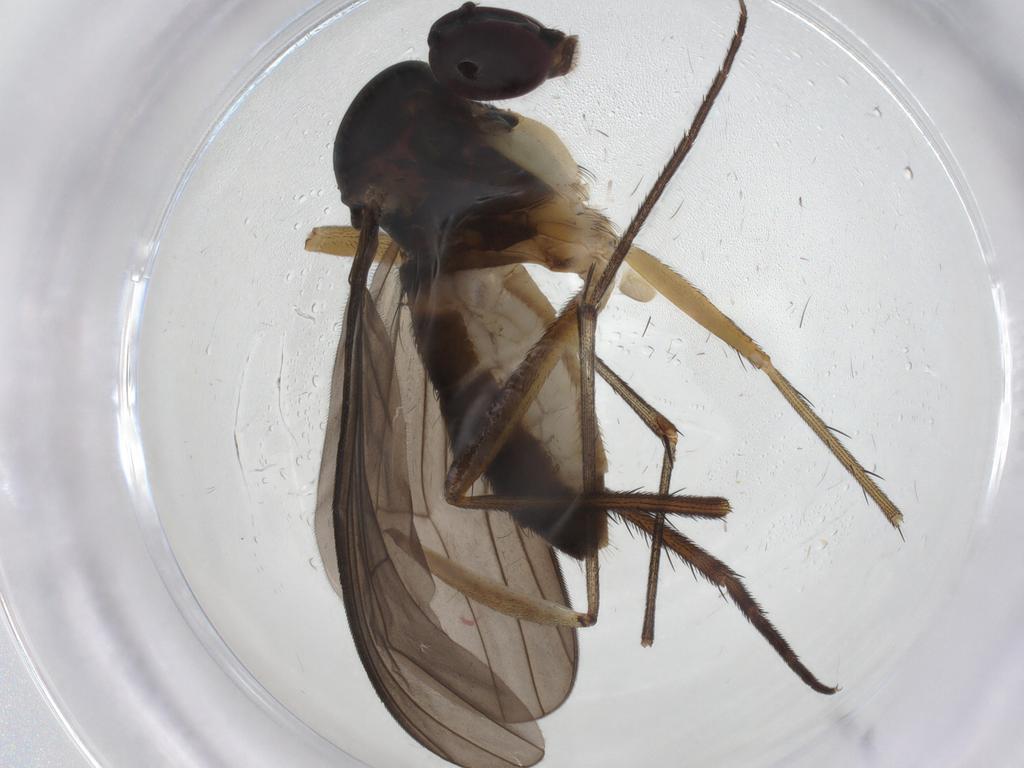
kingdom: Animalia
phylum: Arthropoda
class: Insecta
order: Diptera
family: Dolichopodidae
